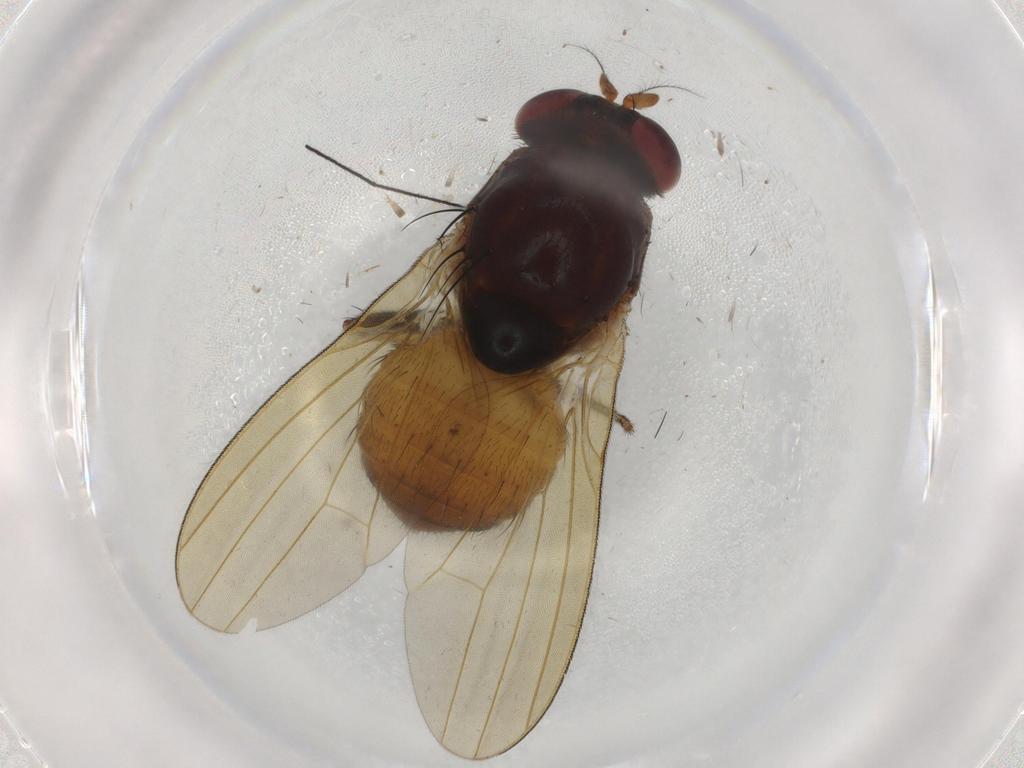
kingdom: Animalia
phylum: Arthropoda
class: Insecta
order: Diptera
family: Lauxaniidae
